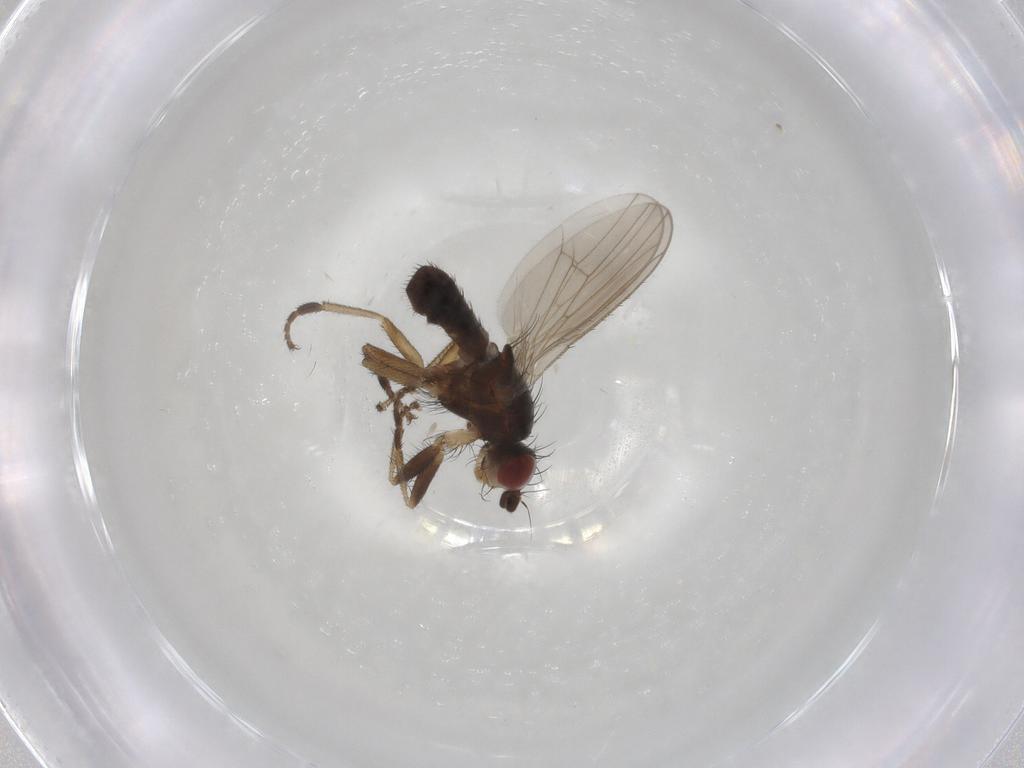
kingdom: Animalia
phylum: Arthropoda
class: Insecta
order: Diptera
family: Heleomyzidae
